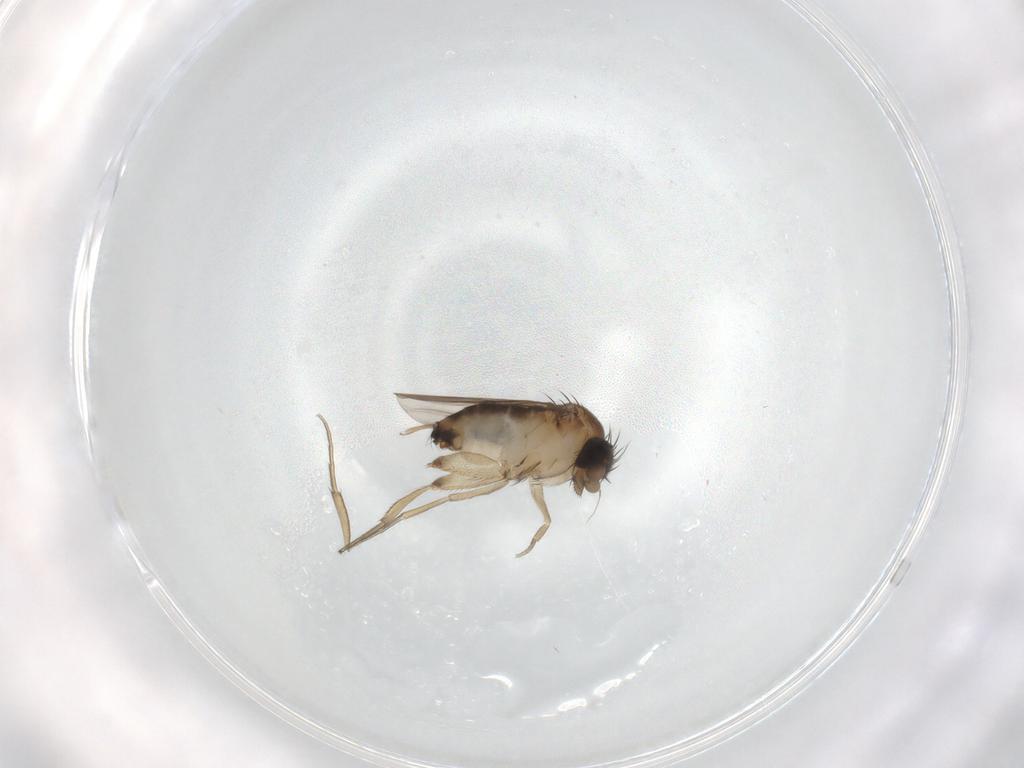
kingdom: Animalia
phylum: Arthropoda
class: Insecta
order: Diptera
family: Sciaridae
